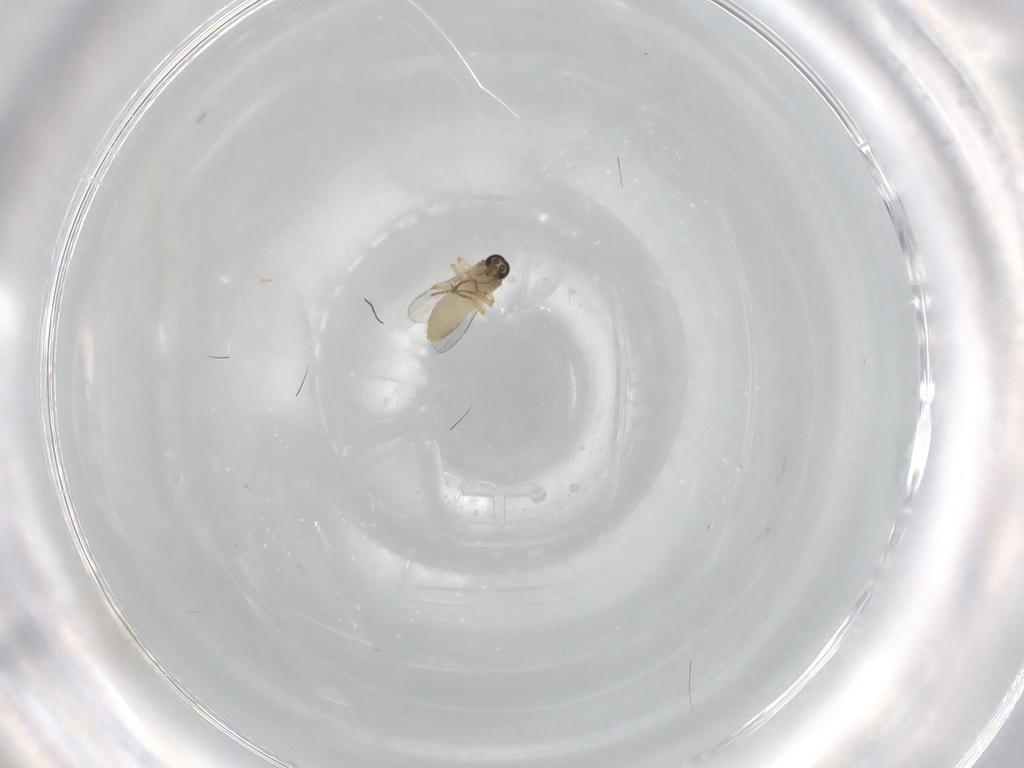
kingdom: Animalia
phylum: Arthropoda
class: Insecta
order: Diptera
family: Ceratopogonidae
